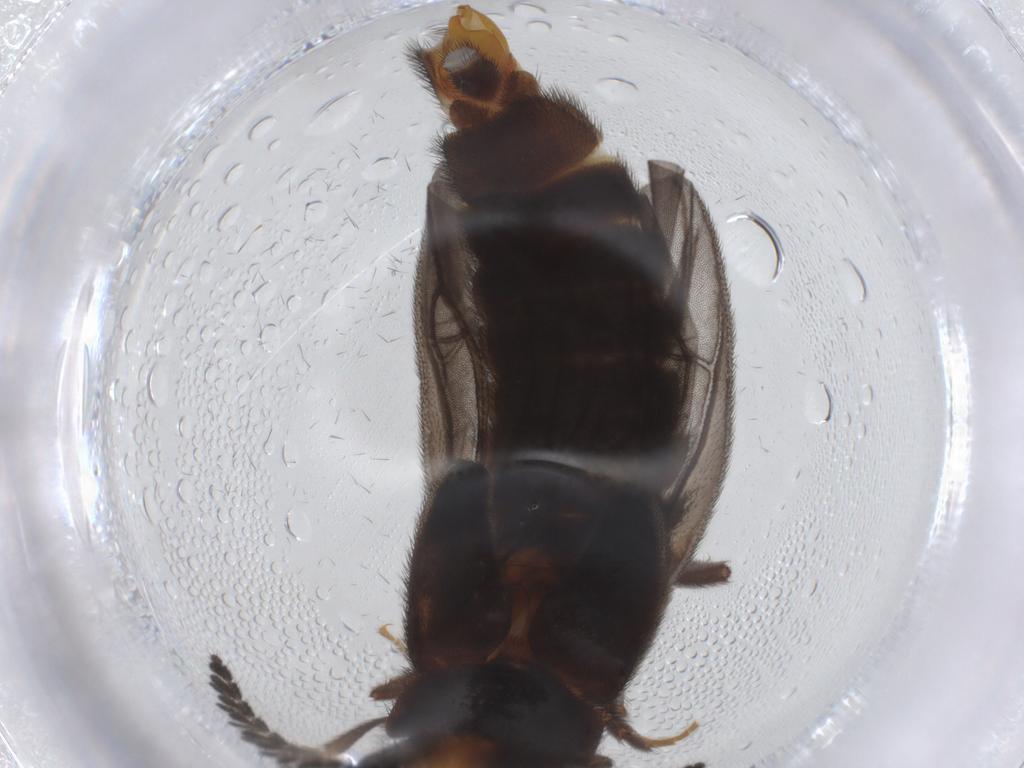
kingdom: Animalia
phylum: Arthropoda
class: Insecta
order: Coleoptera
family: Phengodidae
